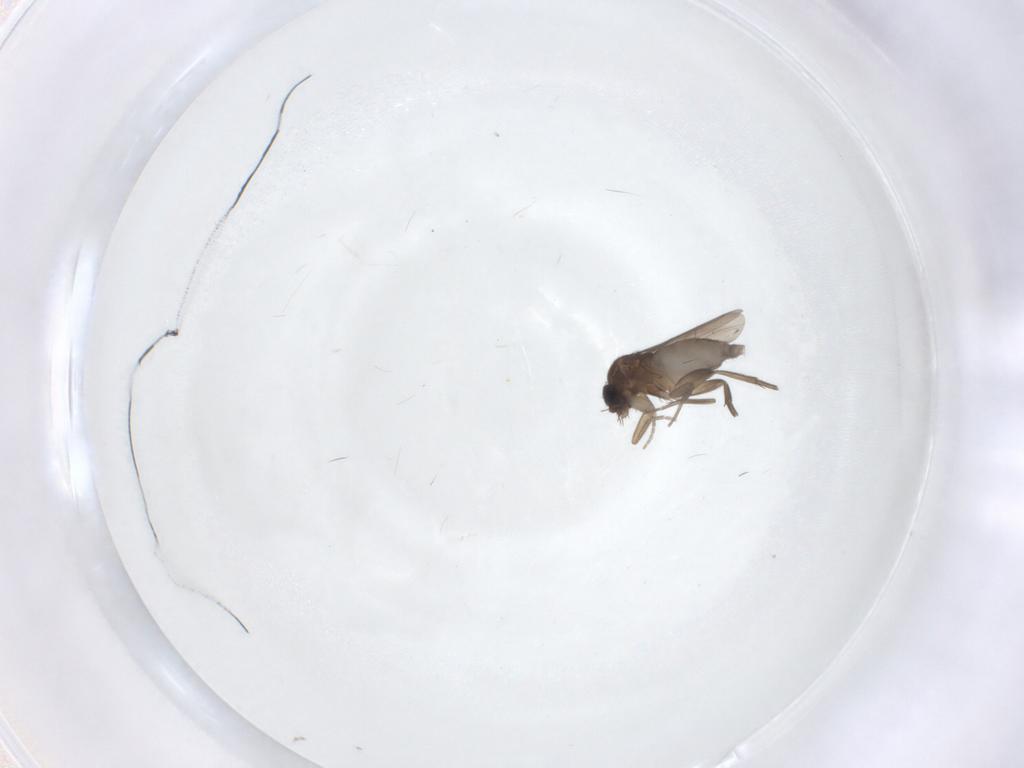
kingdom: Animalia
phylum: Arthropoda
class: Insecta
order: Diptera
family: Phoridae
